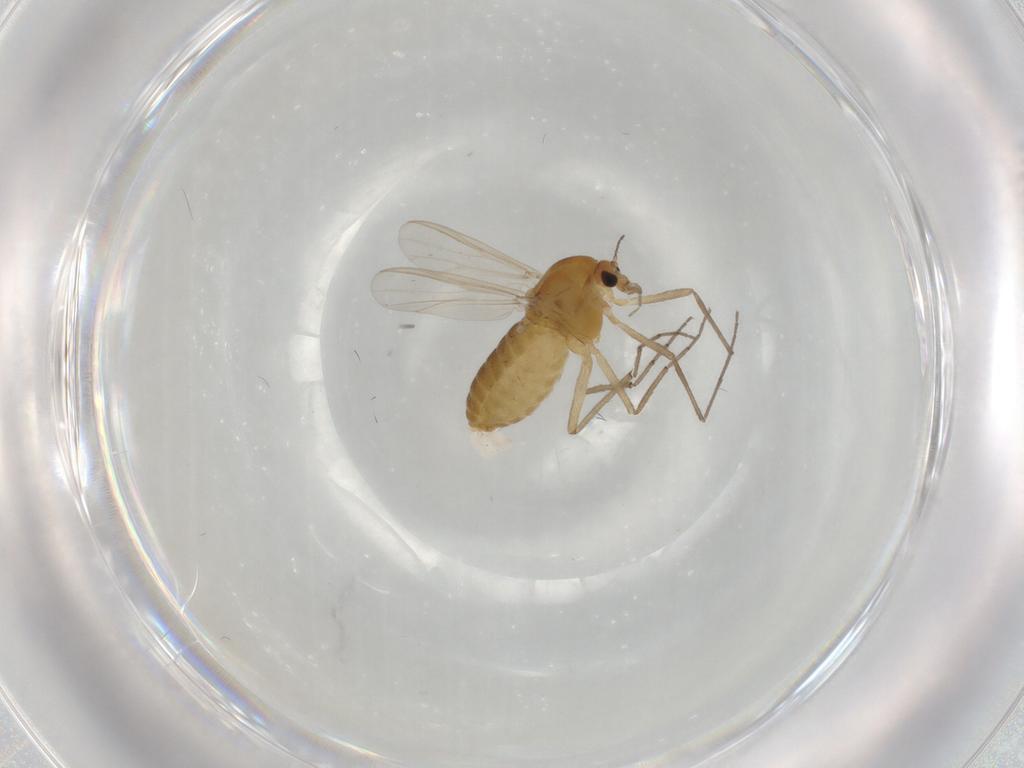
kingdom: Animalia
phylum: Arthropoda
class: Insecta
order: Diptera
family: Chironomidae
